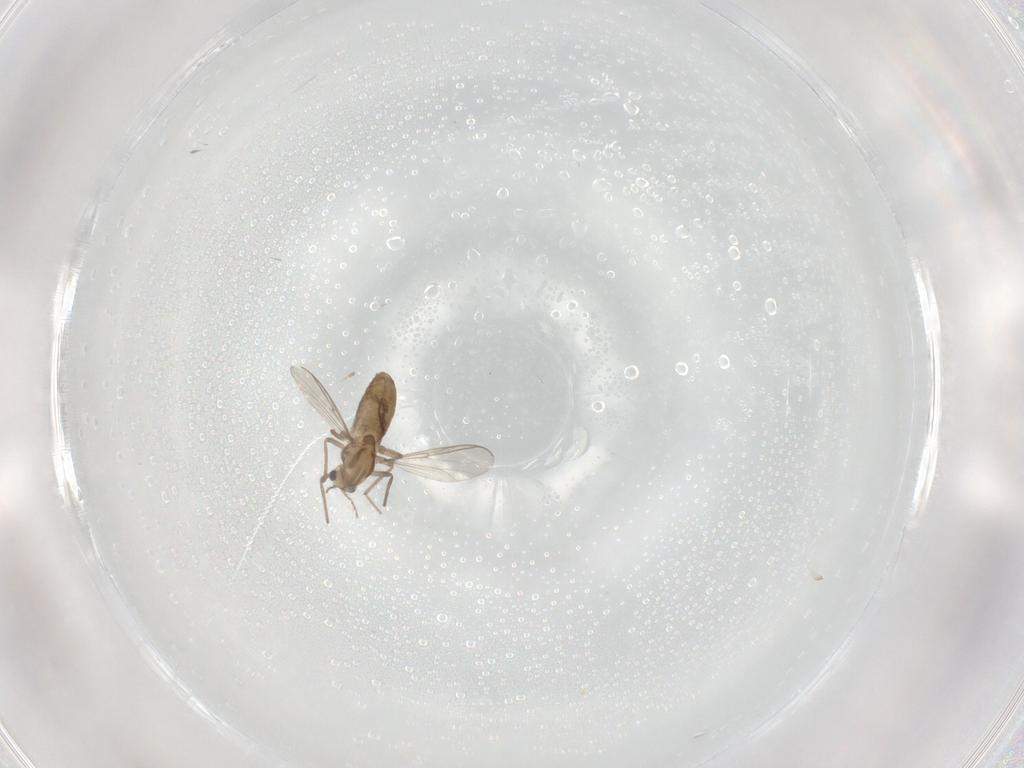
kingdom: Animalia
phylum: Arthropoda
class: Insecta
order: Diptera
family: Chironomidae
